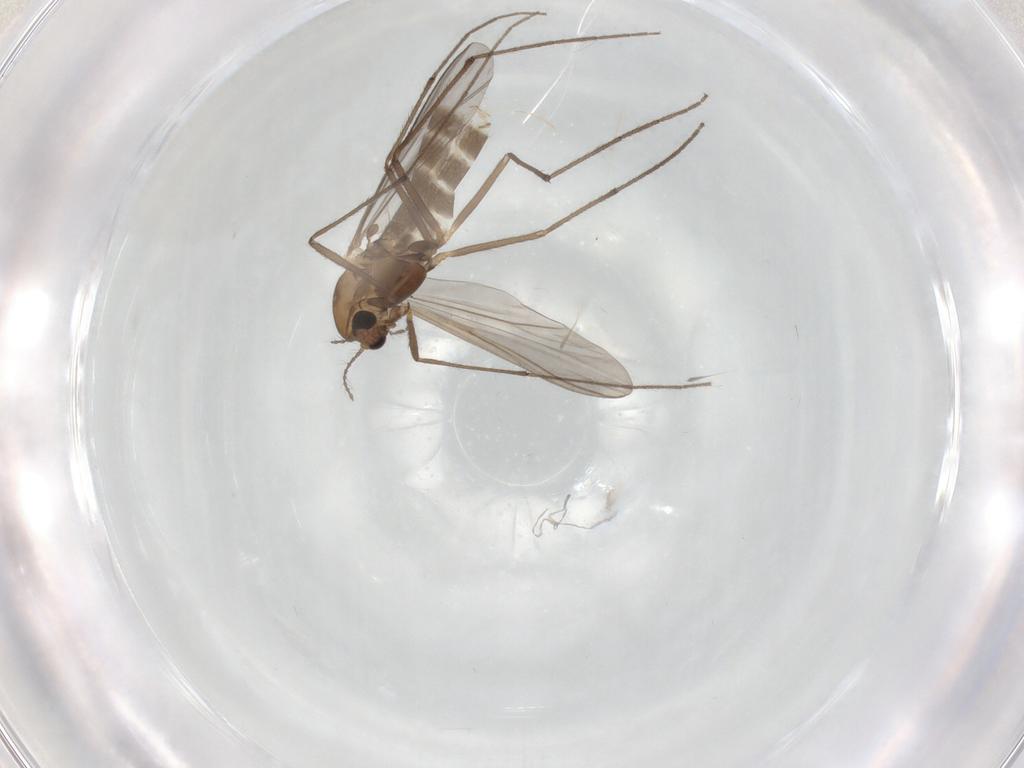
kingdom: Animalia
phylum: Arthropoda
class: Insecta
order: Diptera
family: Chironomidae
